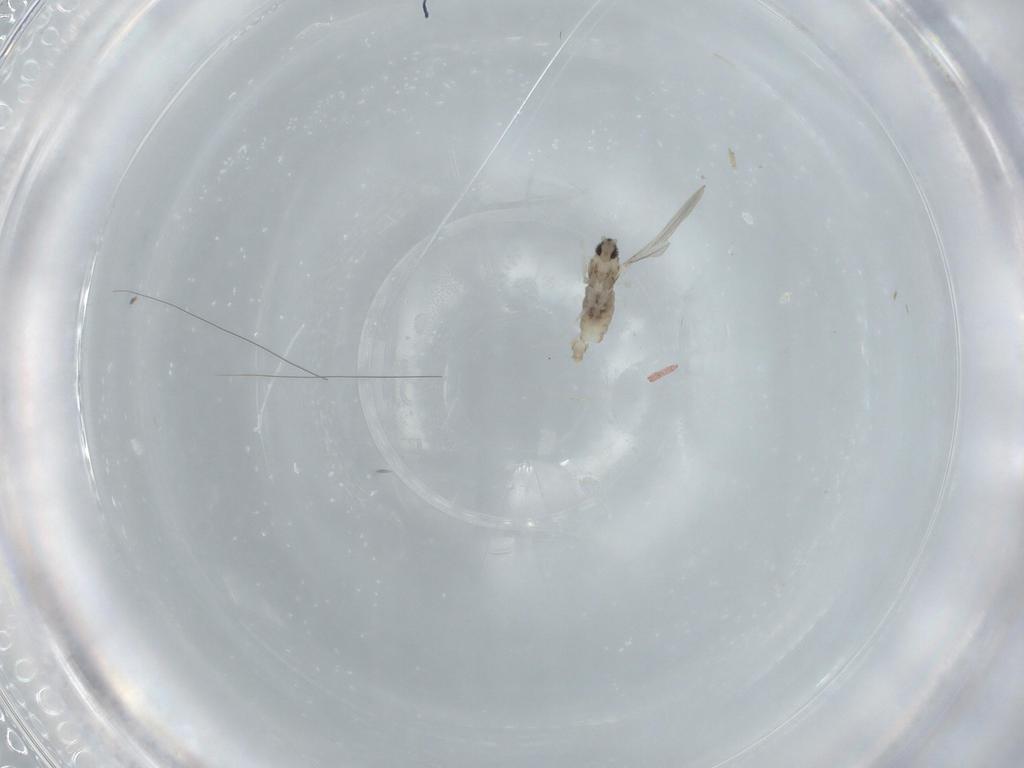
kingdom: Animalia
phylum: Arthropoda
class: Insecta
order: Diptera
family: Cecidomyiidae
